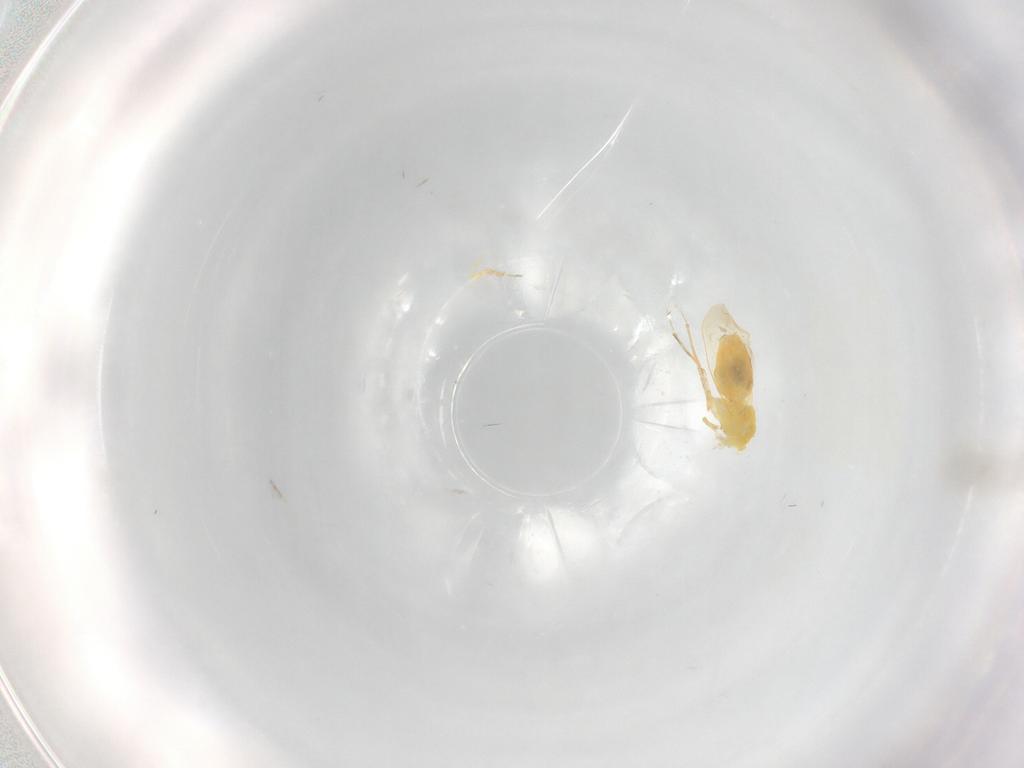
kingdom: Animalia
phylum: Arthropoda
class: Insecta
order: Hemiptera
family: Aleyrodidae
